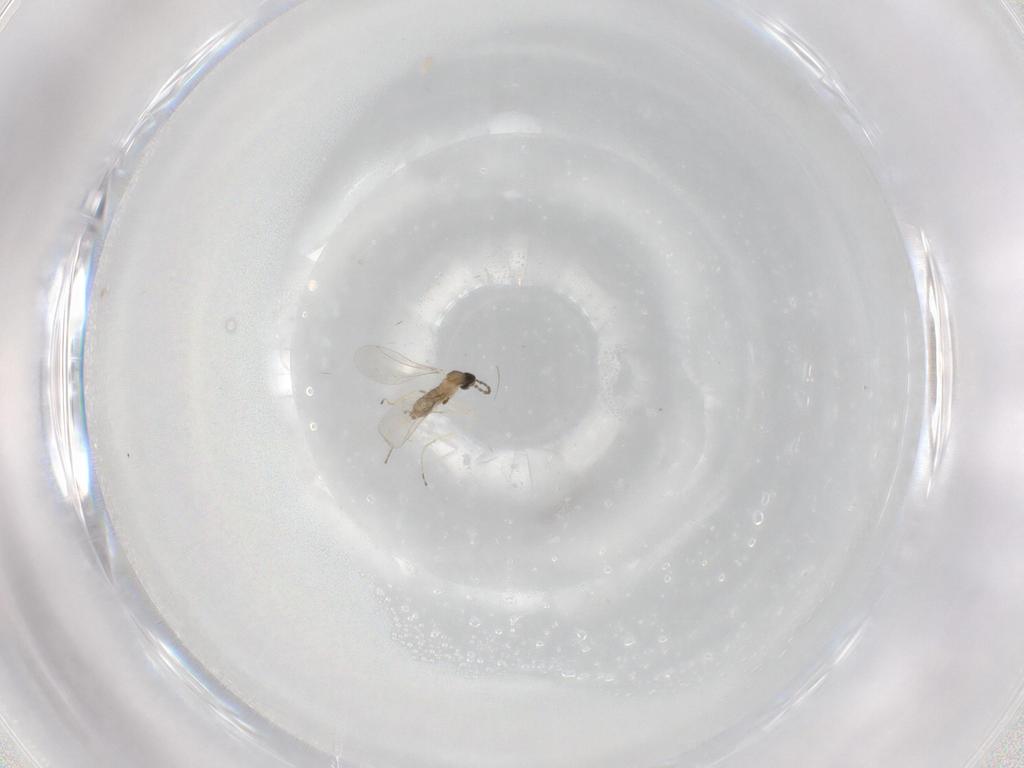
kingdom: Animalia
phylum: Arthropoda
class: Insecta
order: Diptera
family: Cecidomyiidae
